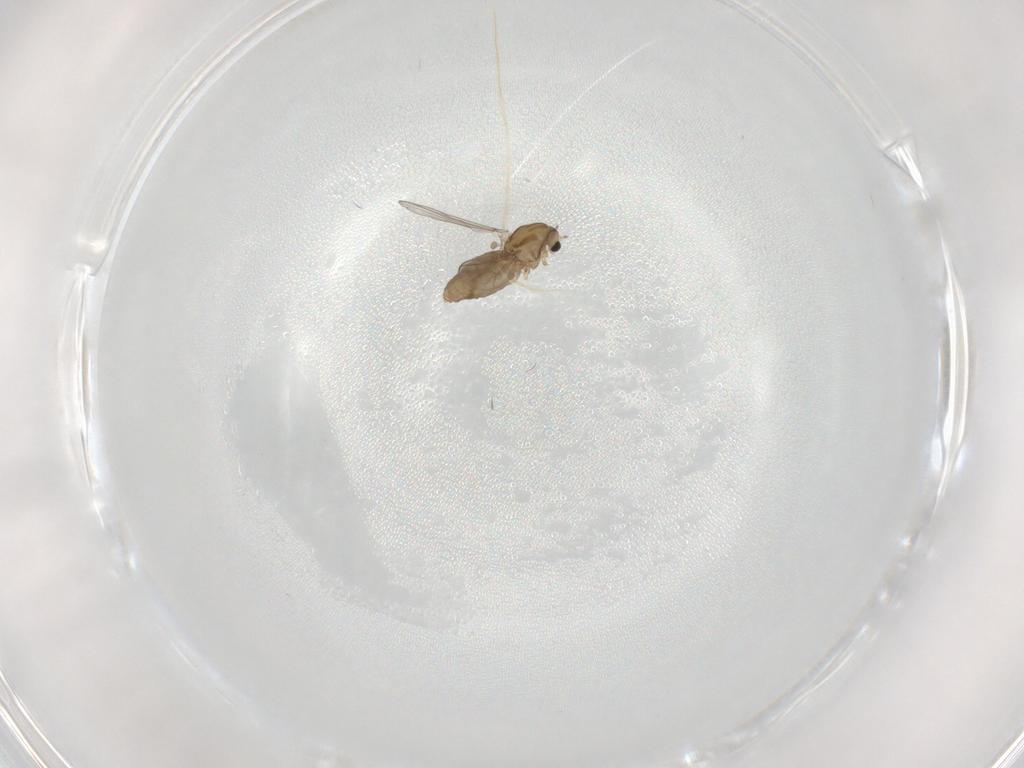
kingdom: Animalia
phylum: Arthropoda
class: Insecta
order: Diptera
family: Chironomidae
